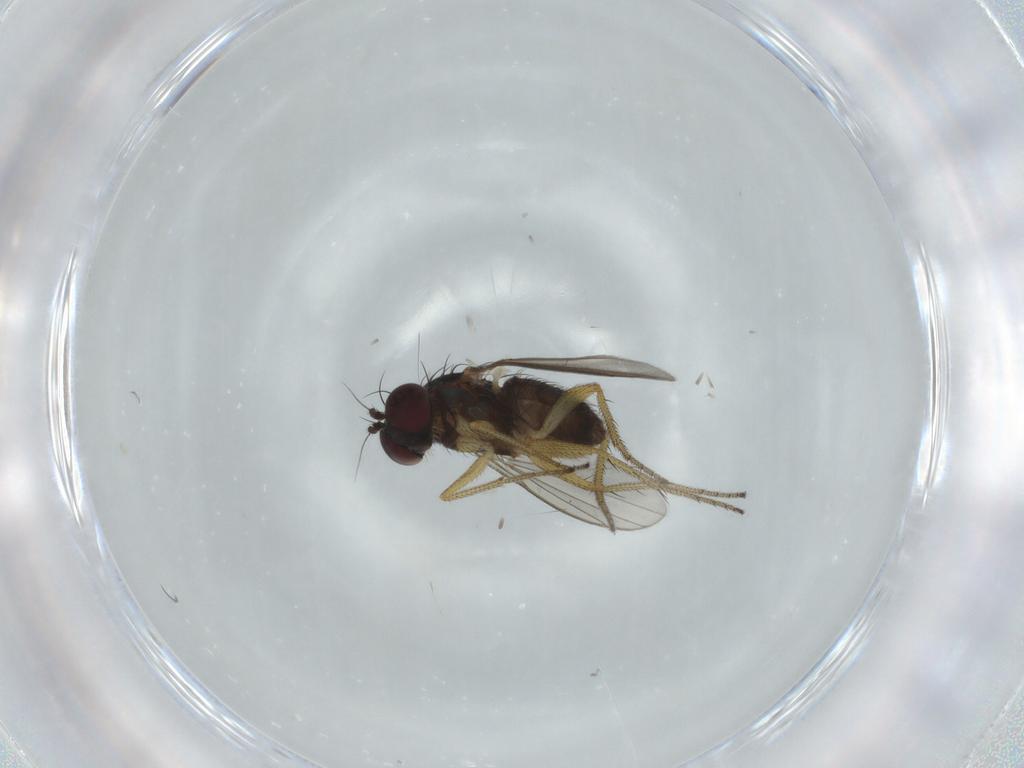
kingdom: Animalia
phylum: Arthropoda
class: Insecta
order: Diptera
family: Dolichopodidae
